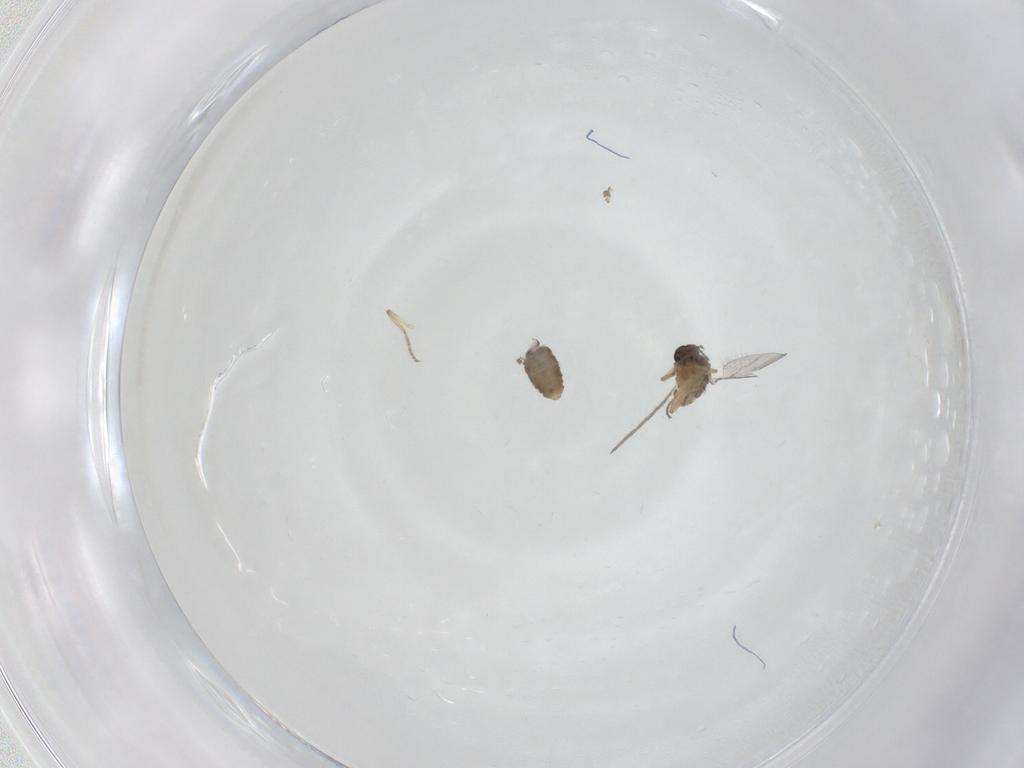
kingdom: Animalia
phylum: Arthropoda
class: Insecta
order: Diptera
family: Ceratopogonidae
